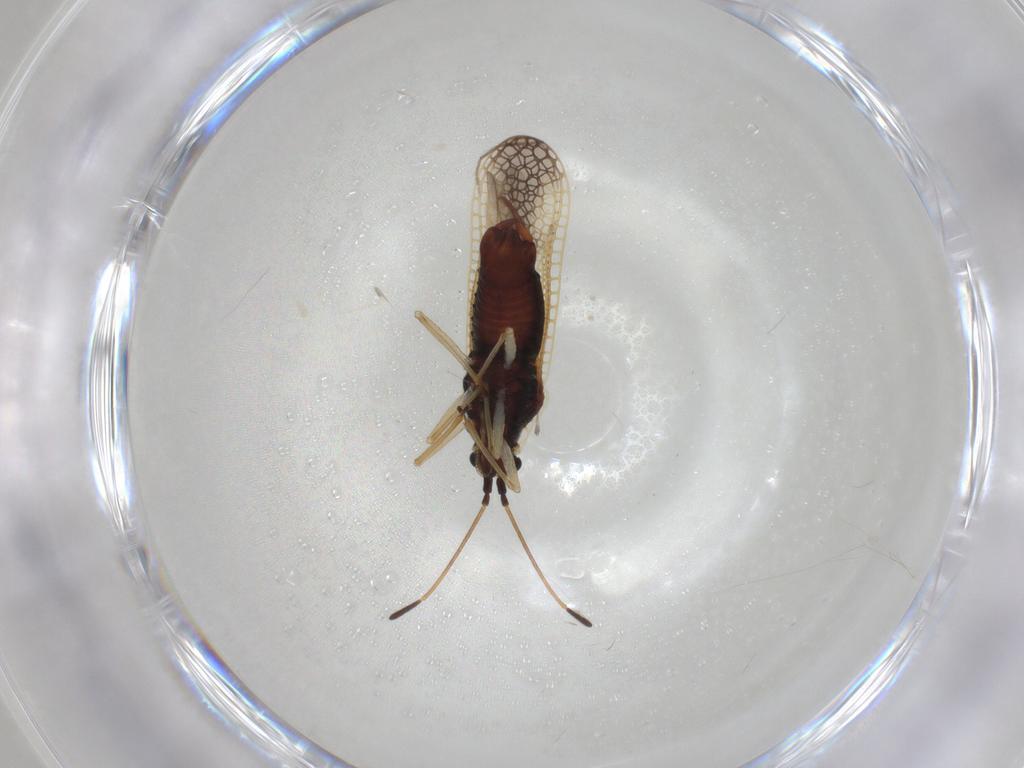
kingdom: Animalia
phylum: Arthropoda
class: Insecta
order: Hemiptera
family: Tingidae
